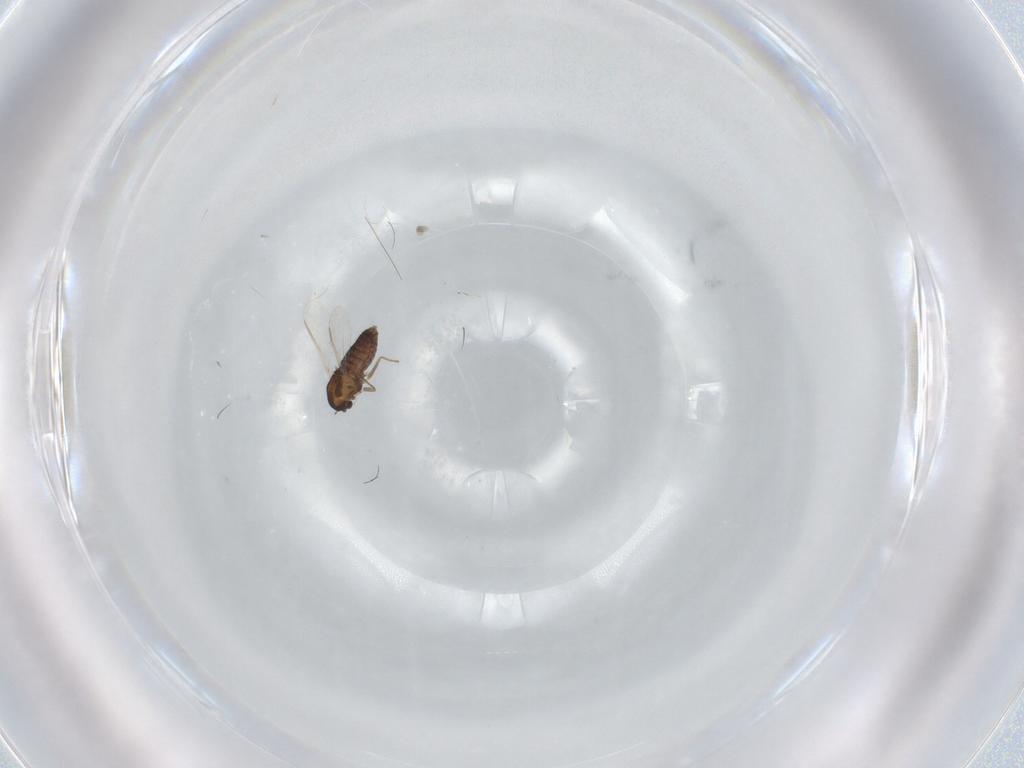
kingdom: Animalia
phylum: Arthropoda
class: Insecta
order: Diptera
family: Chironomidae
